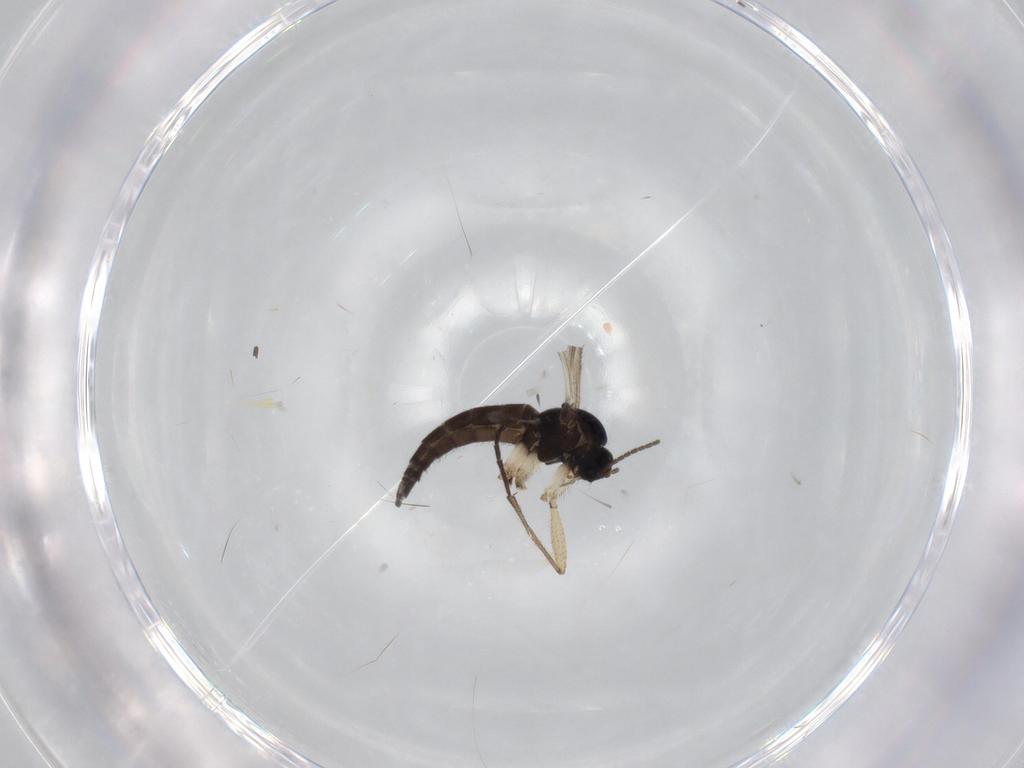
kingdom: Animalia
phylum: Arthropoda
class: Insecta
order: Diptera
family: Sciaridae
